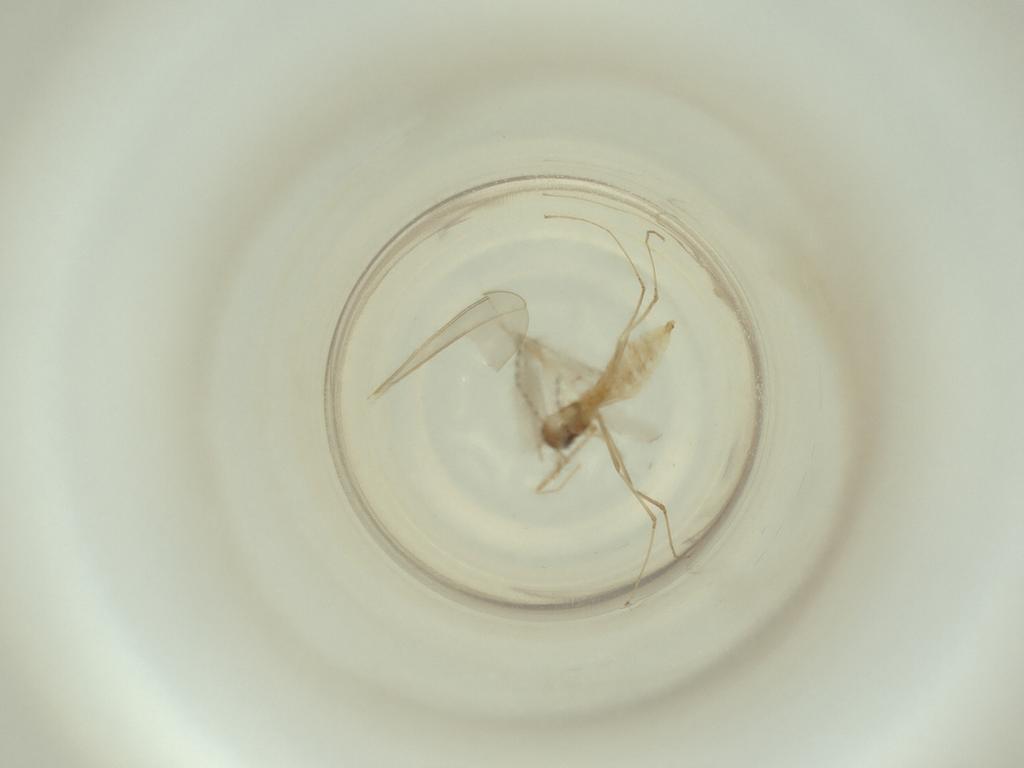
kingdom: Animalia
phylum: Arthropoda
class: Insecta
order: Diptera
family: Cecidomyiidae
